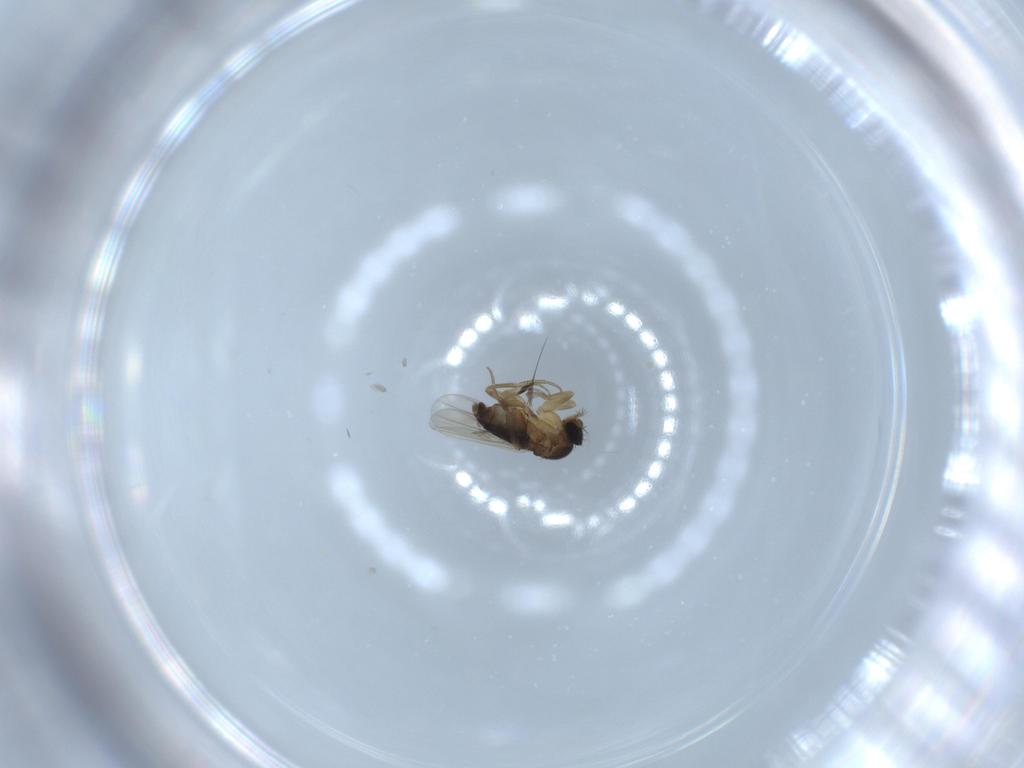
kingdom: Animalia
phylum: Arthropoda
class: Insecta
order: Diptera
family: Phoridae
